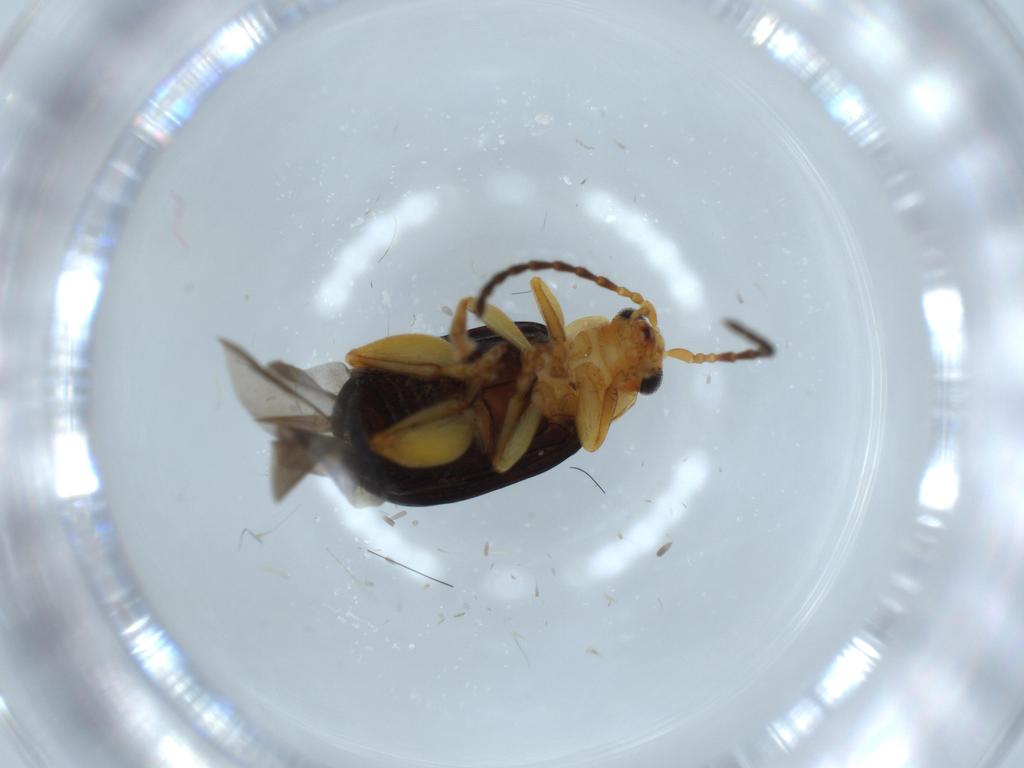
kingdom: Animalia
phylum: Arthropoda
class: Insecta
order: Coleoptera
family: Chrysomelidae
